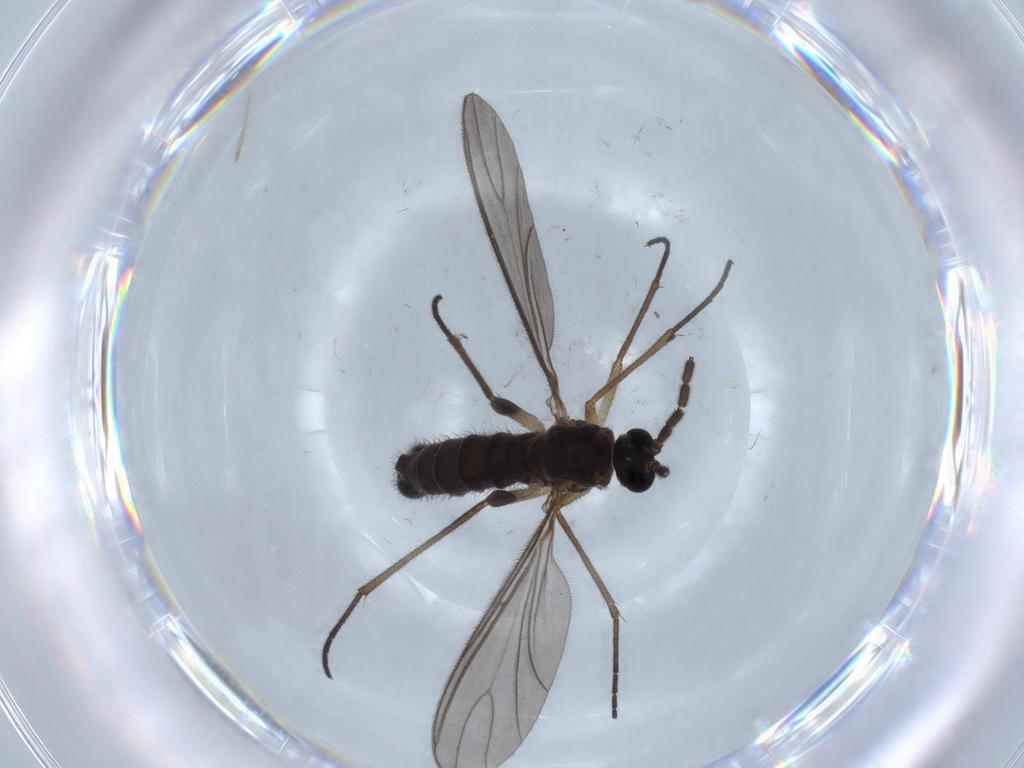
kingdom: Animalia
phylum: Arthropoda
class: Insecta
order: Diptera
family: Sciaridae
